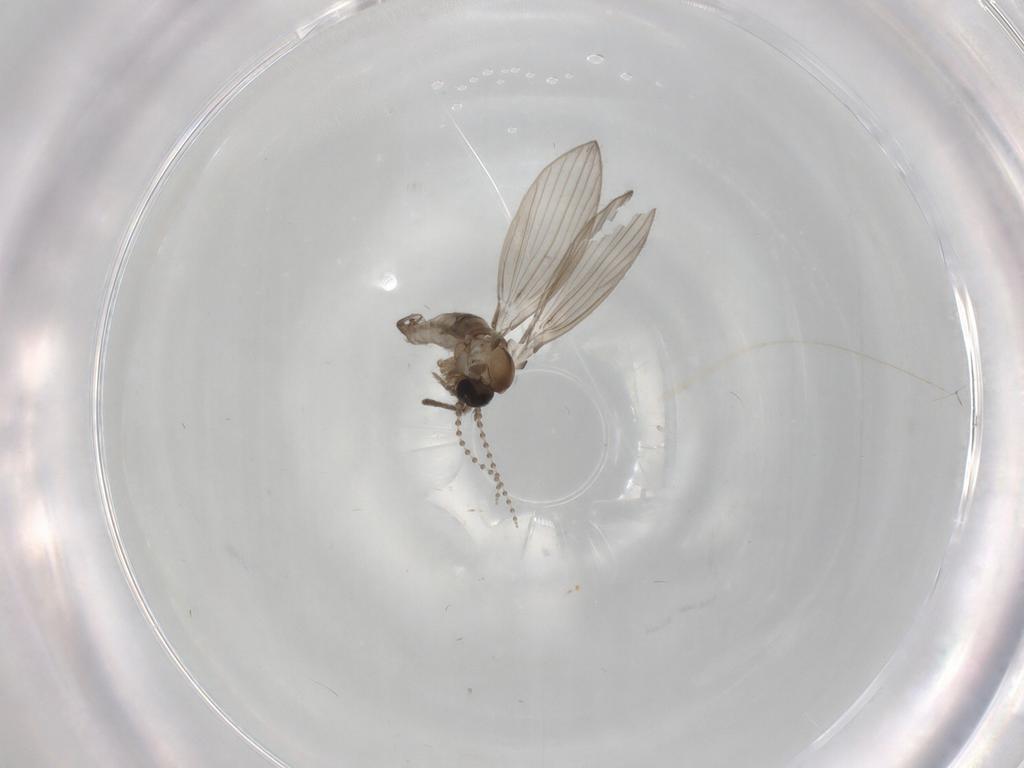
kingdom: Animalia
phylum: Arthropoda
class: Insecta
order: Diptera
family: Psychodidae
